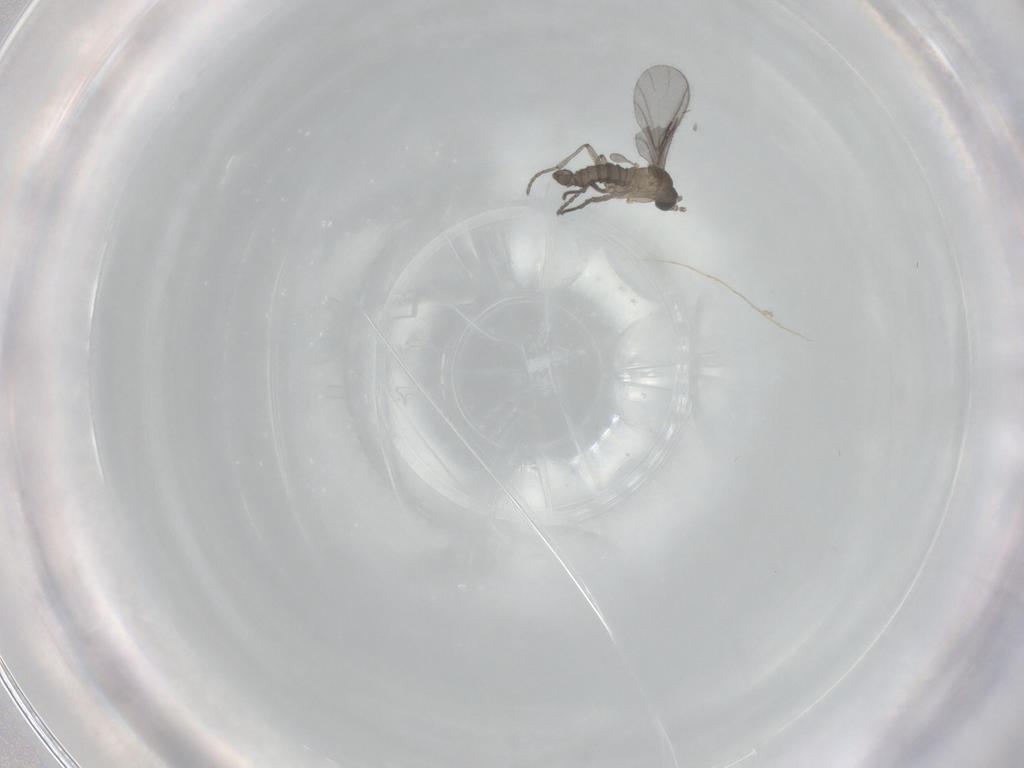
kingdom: Animalia
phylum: Arthropoda
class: Insecta
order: Diptera
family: Sciaridae
